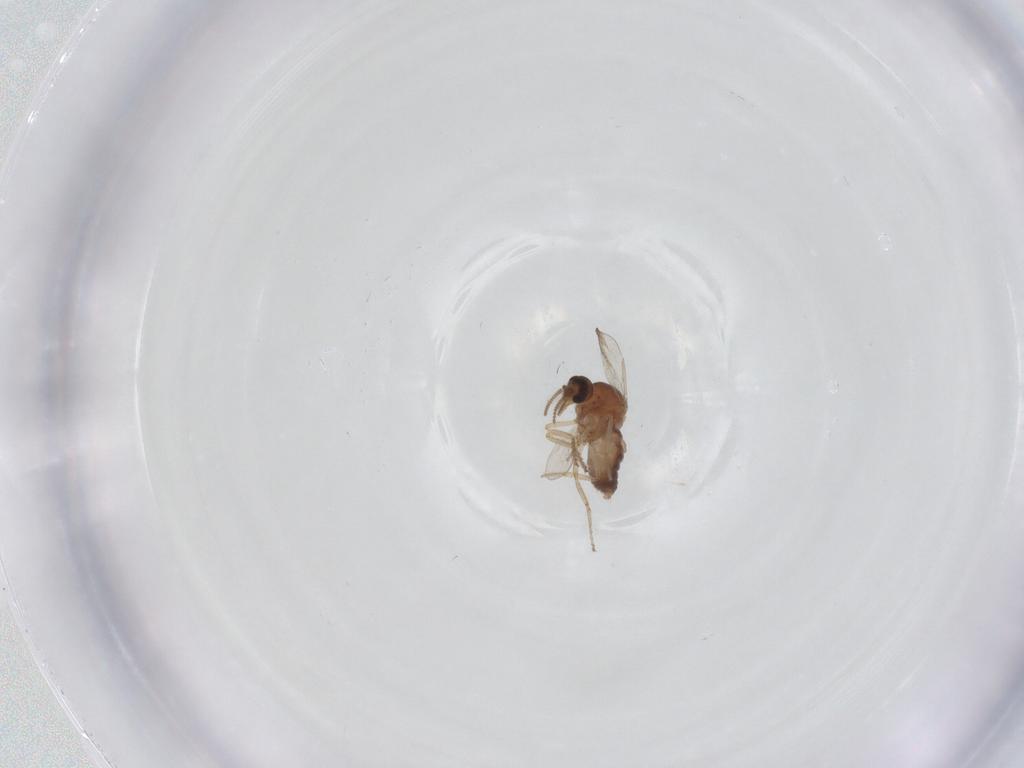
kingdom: Animalia
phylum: Arthropoda
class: Insecta
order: Diptera
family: Ceratopogonidae
